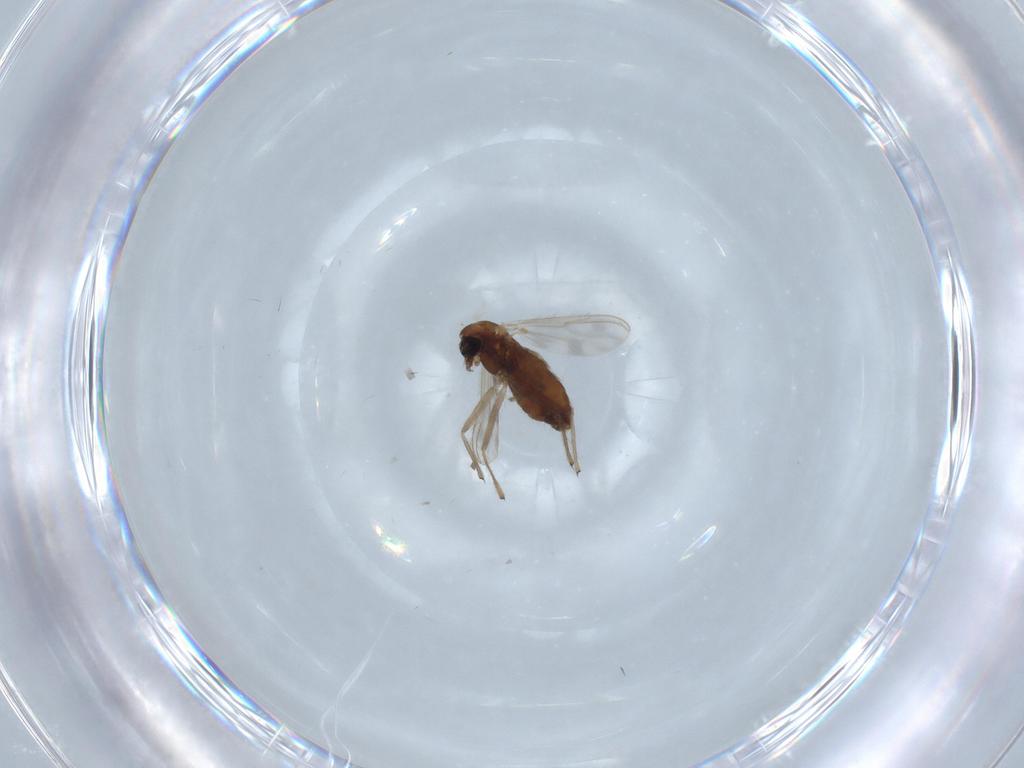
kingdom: Animalia
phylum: Arthropoda
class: Insecta
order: Diptera
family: Chironomidae
